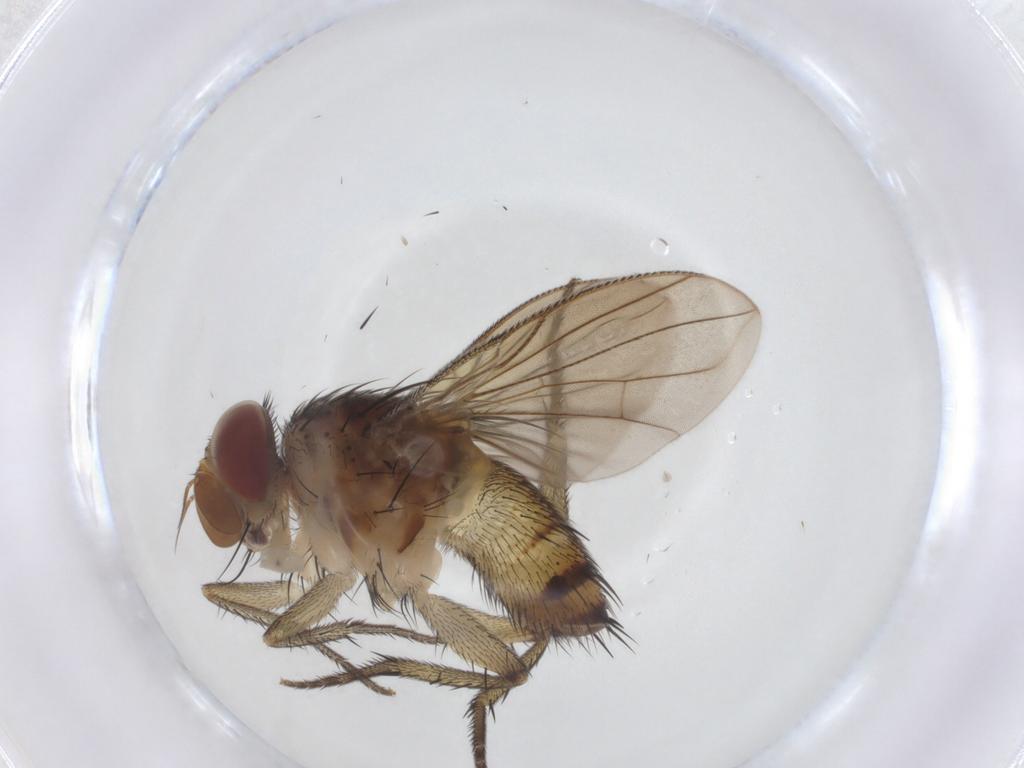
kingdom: Animalia
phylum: Arthropoda
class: Insecta
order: Diptera
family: Tachinidae
